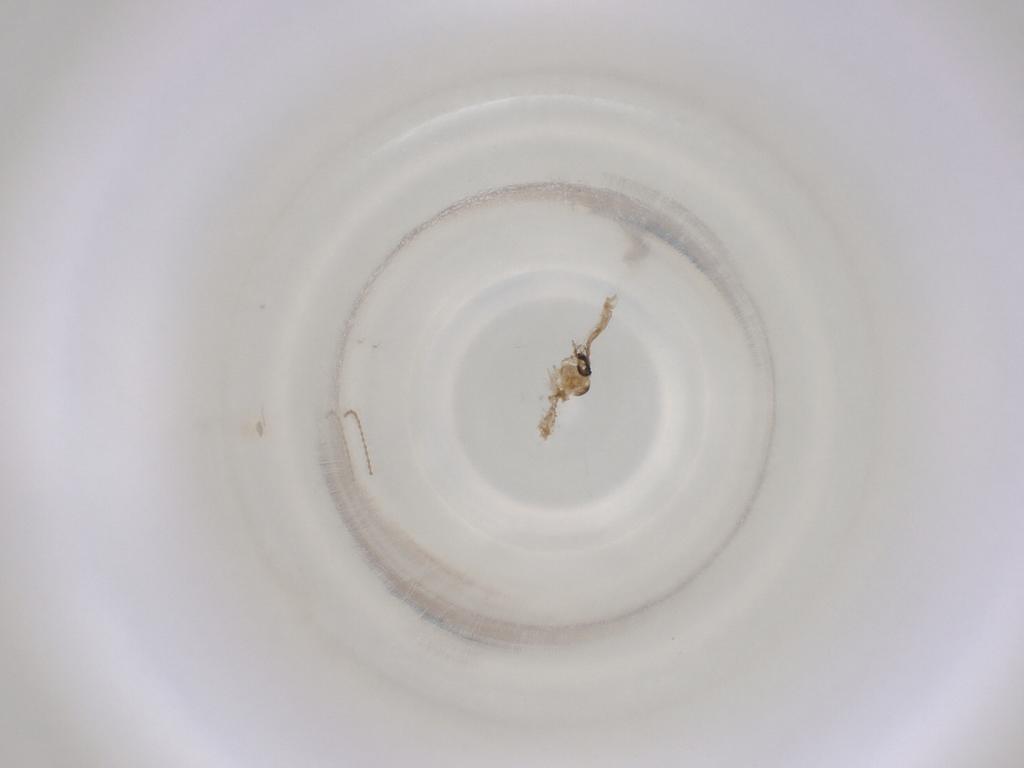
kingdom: Animalia
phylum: Arthropoda
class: Insecta
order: Diptera
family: Cecidomyiidae
